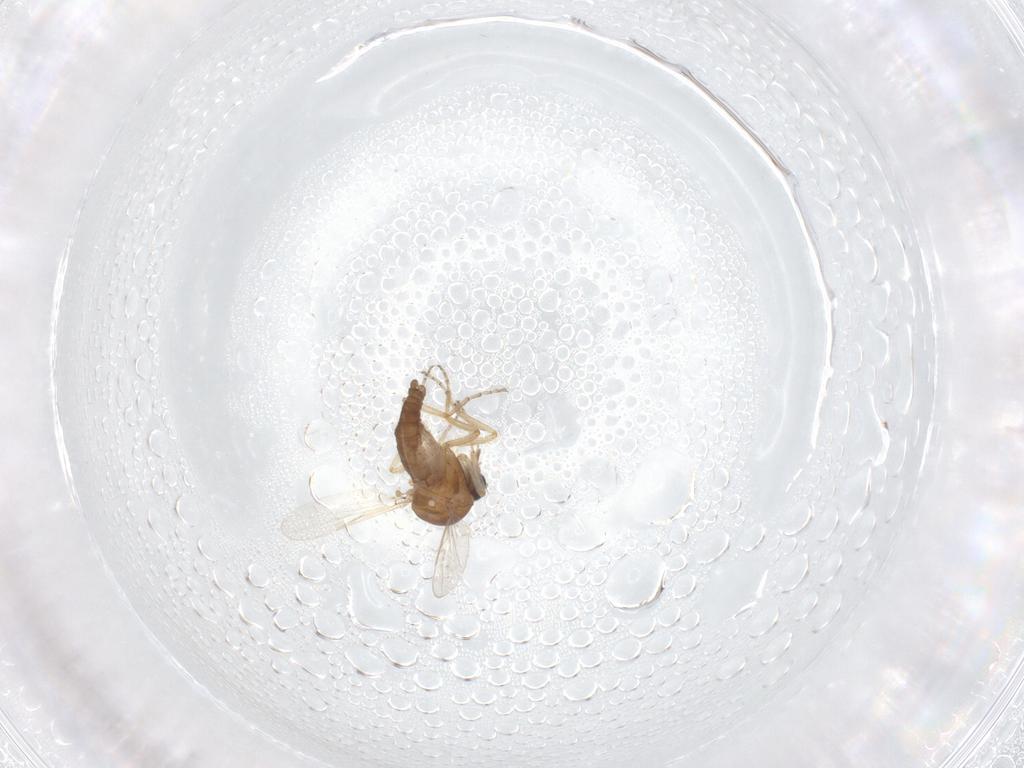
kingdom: Animalia
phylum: Arthropoda
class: Insecta
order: Diptera
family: Ceratopogonidae
